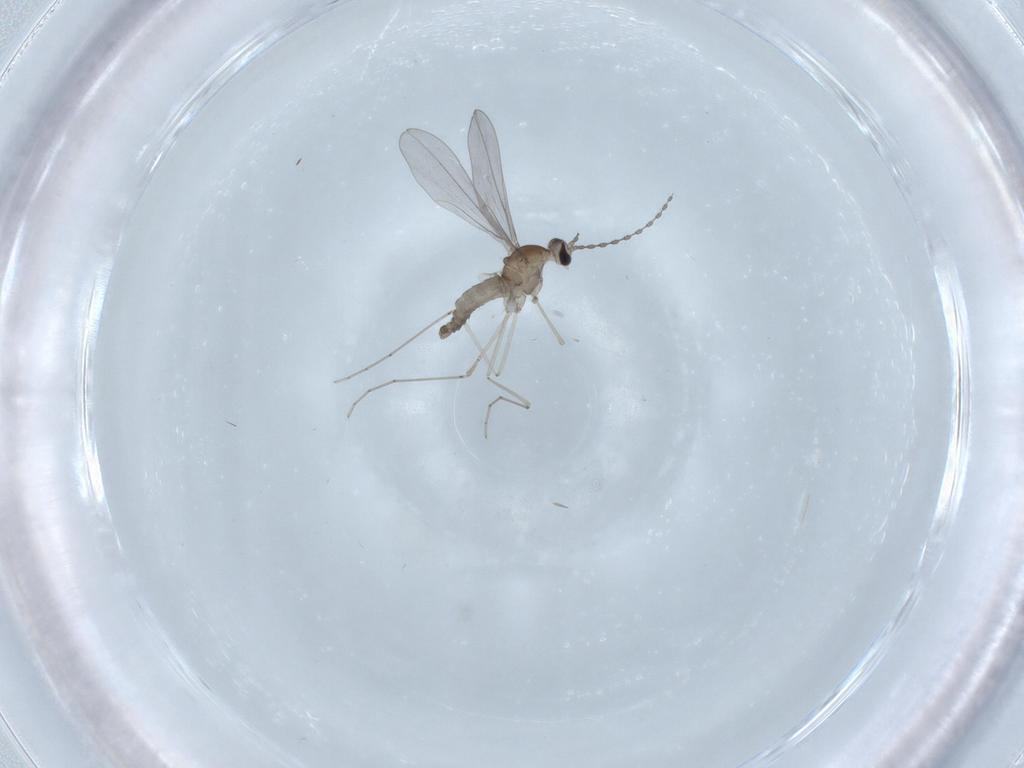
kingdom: Animalia
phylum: Arthropoda
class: Insecta
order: Diptera
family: Cecidomyiidae
